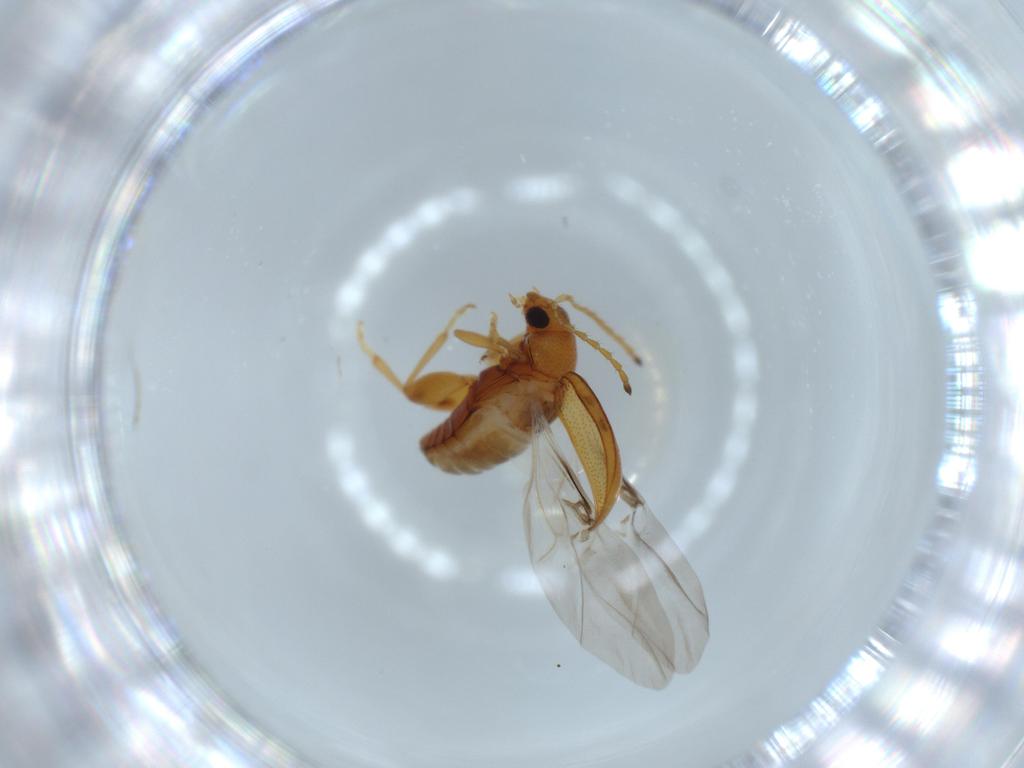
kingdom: Animalia
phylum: Arthropoda
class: Insecta
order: Coleoptera
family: Chrysomelidae
